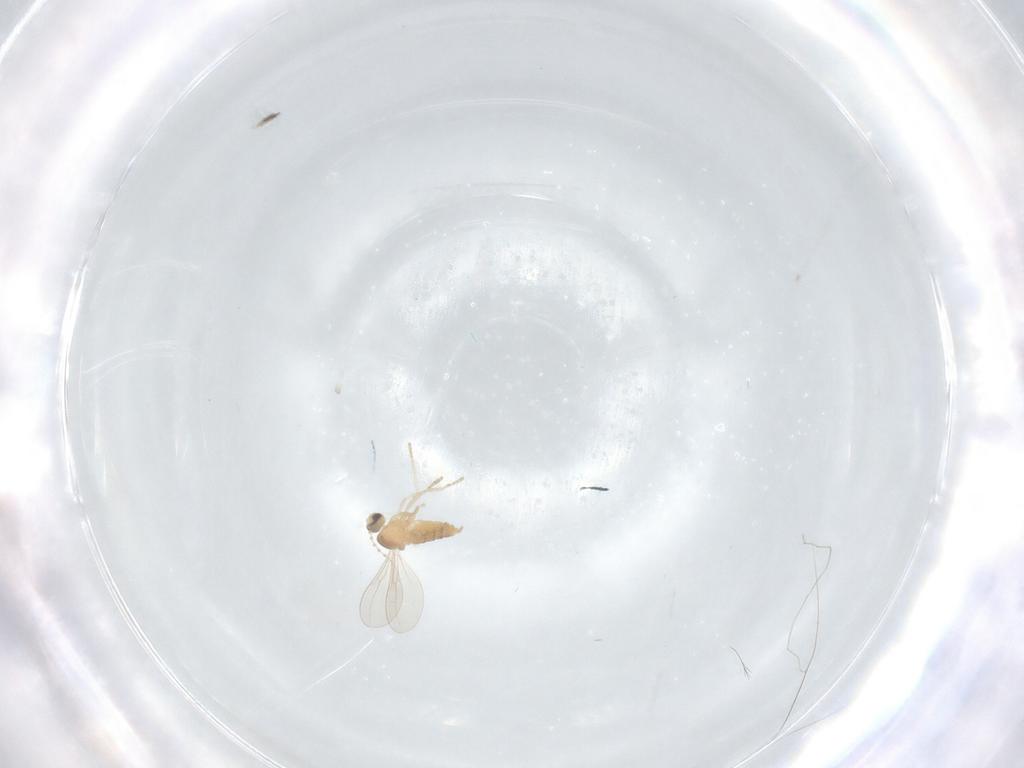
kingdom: Animalia
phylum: Arthropoda
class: Insecta
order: Diptera
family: Cecidomyiidae
